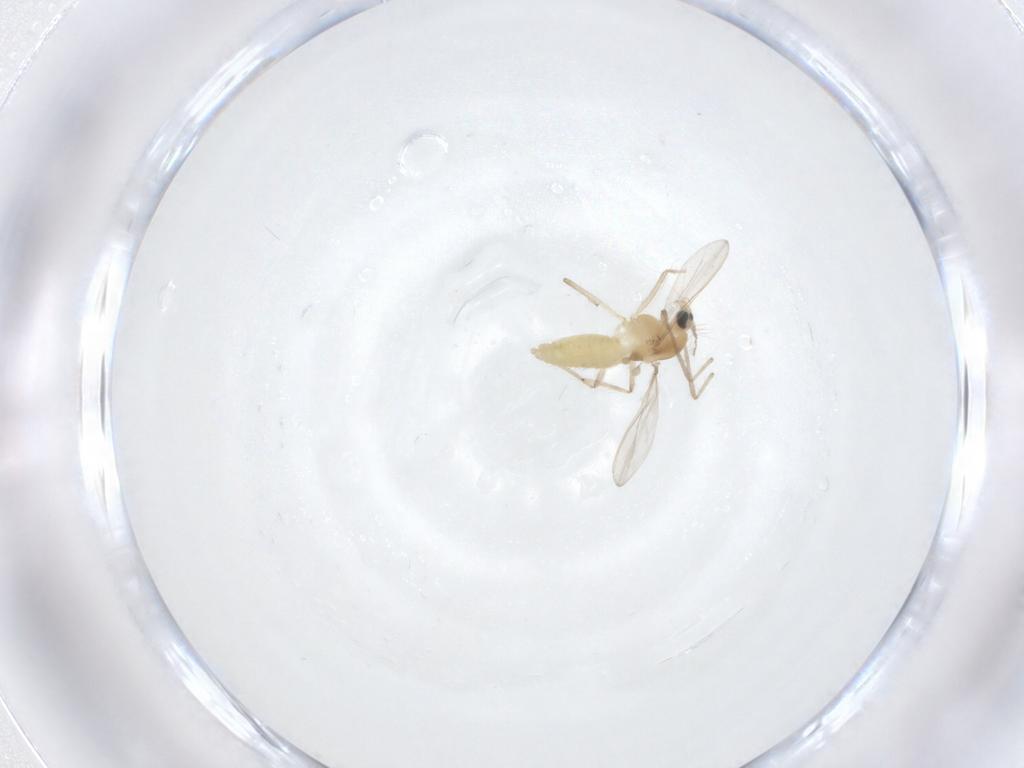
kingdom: Animalia
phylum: Arthropoda
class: Insecta
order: Diptera
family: Chironomidae
